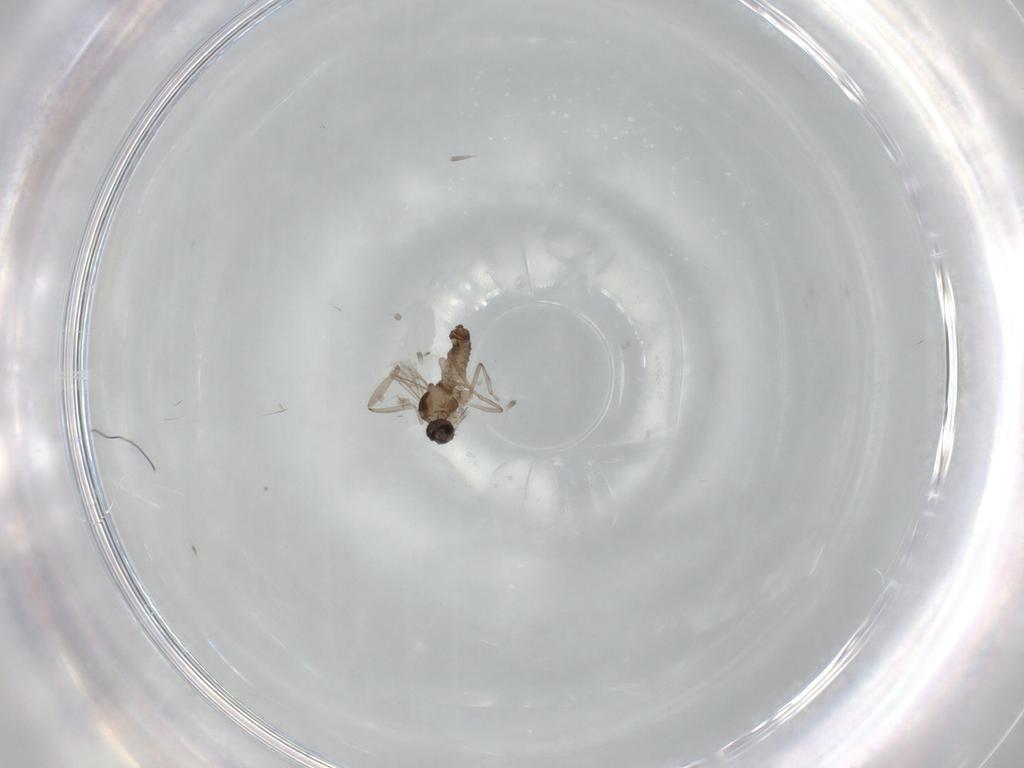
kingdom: Animalia
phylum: Arthropoda
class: Insecta
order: Diptera
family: Cecidomyiidae
